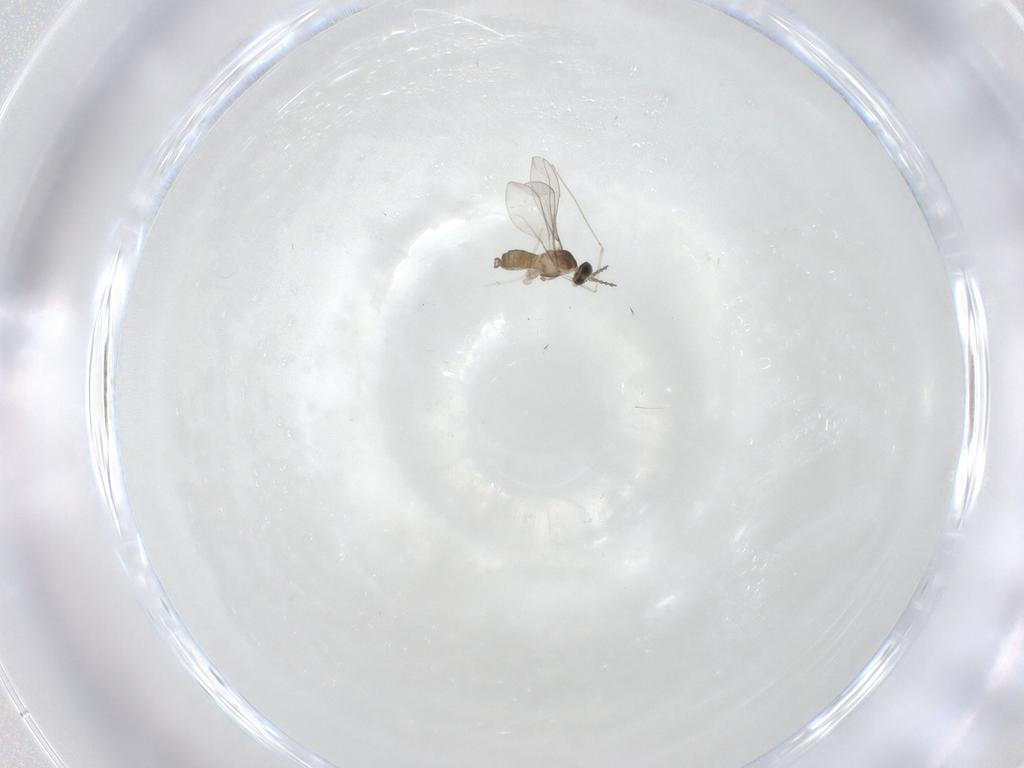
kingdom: Animalia
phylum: Arthropoda
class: Insecta
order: Diptera
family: Cecidomyiidae
